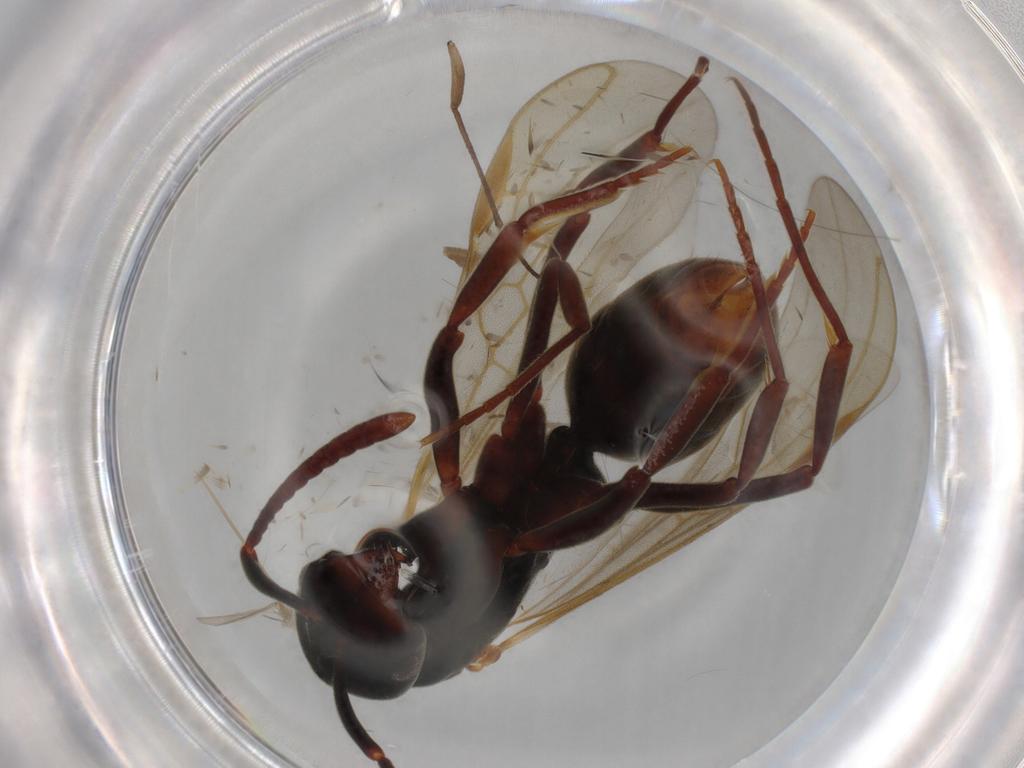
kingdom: Animalia
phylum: Arthropoda
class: Insecta
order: Hymenoptera
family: Formicidae
